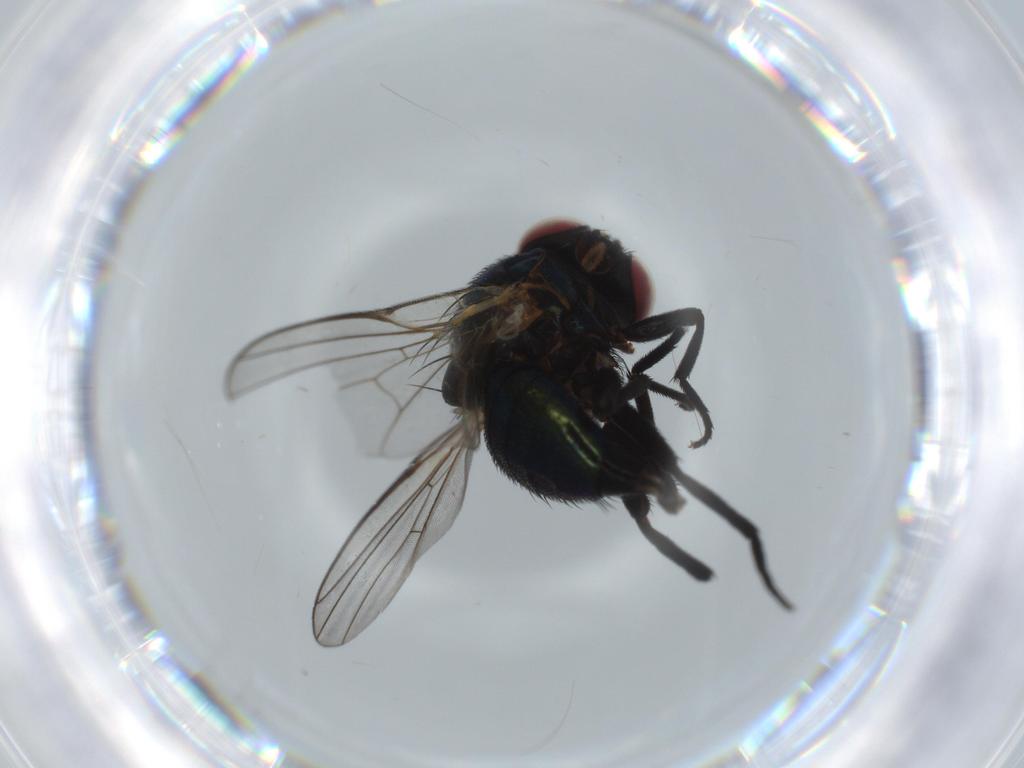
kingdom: Animalia
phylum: Arthropoda
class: Insecta
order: Diptera
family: Agromyzidae
